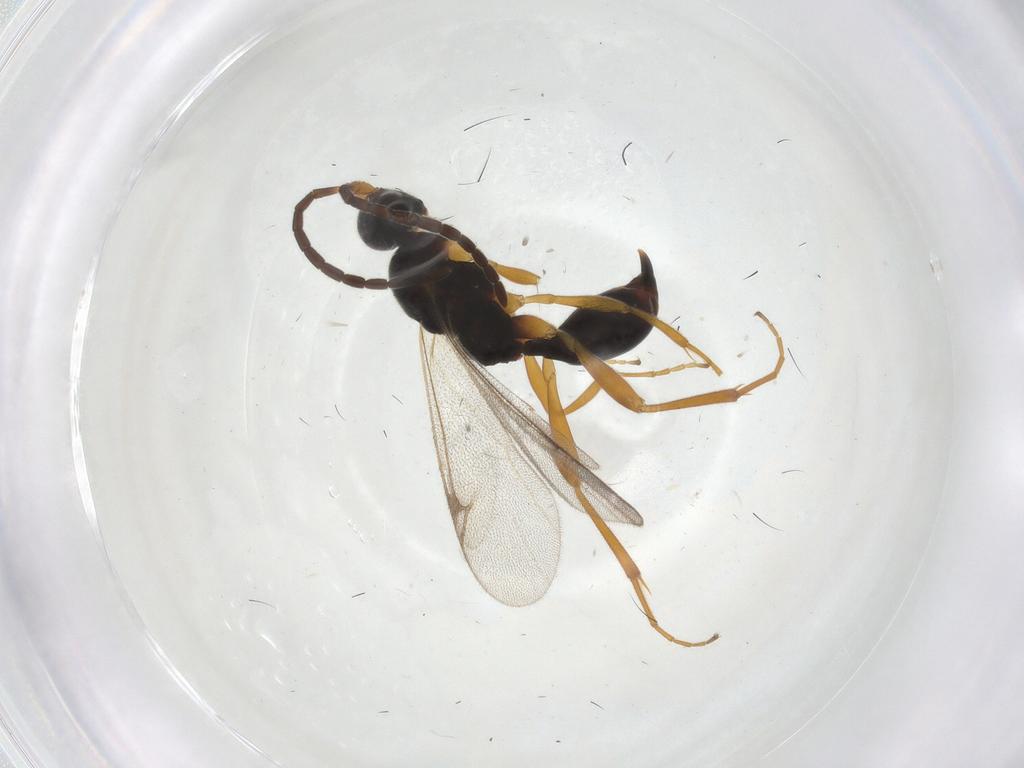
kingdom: Animalia
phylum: Arthropoda
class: Insecta
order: Hymenoptera
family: Proctotrupidae
